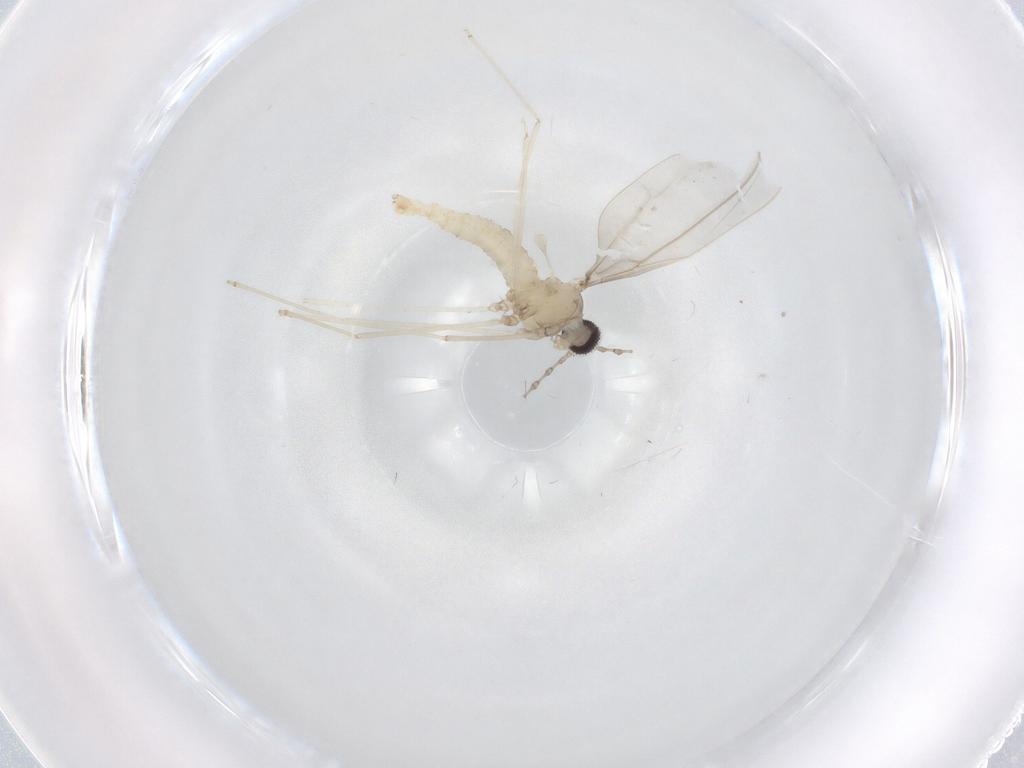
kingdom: Animalia
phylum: Arthropoda
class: Insecta
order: Diptera
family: Cecidomyiidae
